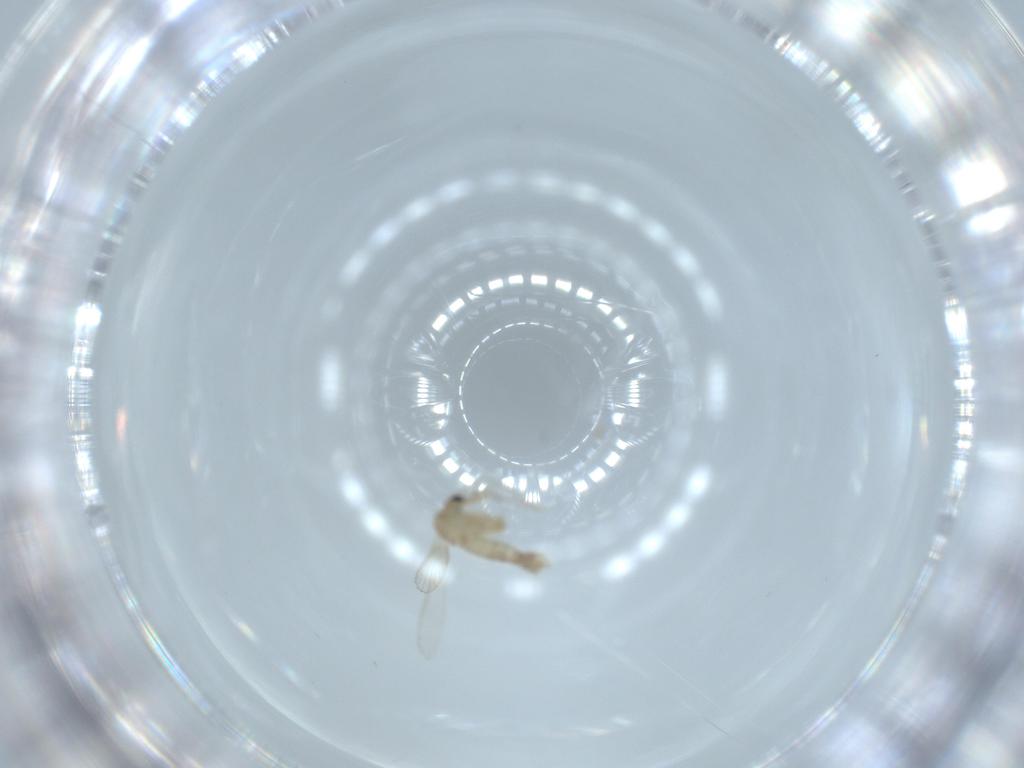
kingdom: Animalia
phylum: Arthropoda
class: Insecta
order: Diptera
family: Psychodidae
